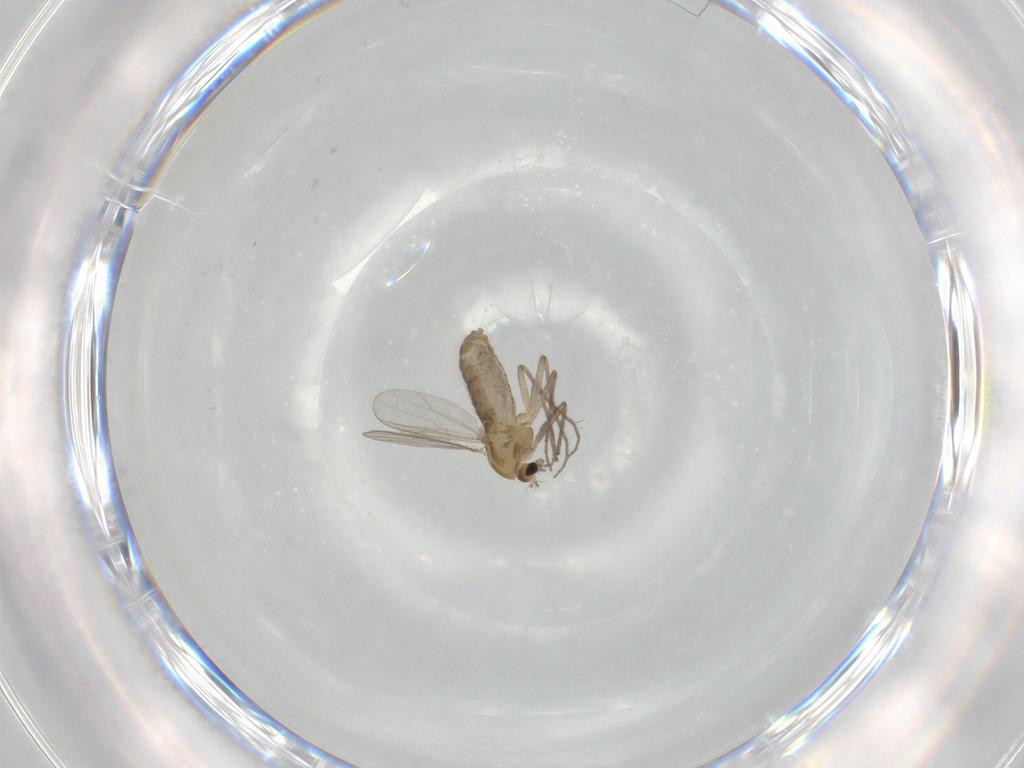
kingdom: Animalia
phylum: Arthropoda
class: Insecta
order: Diptera
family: Chironomidae
